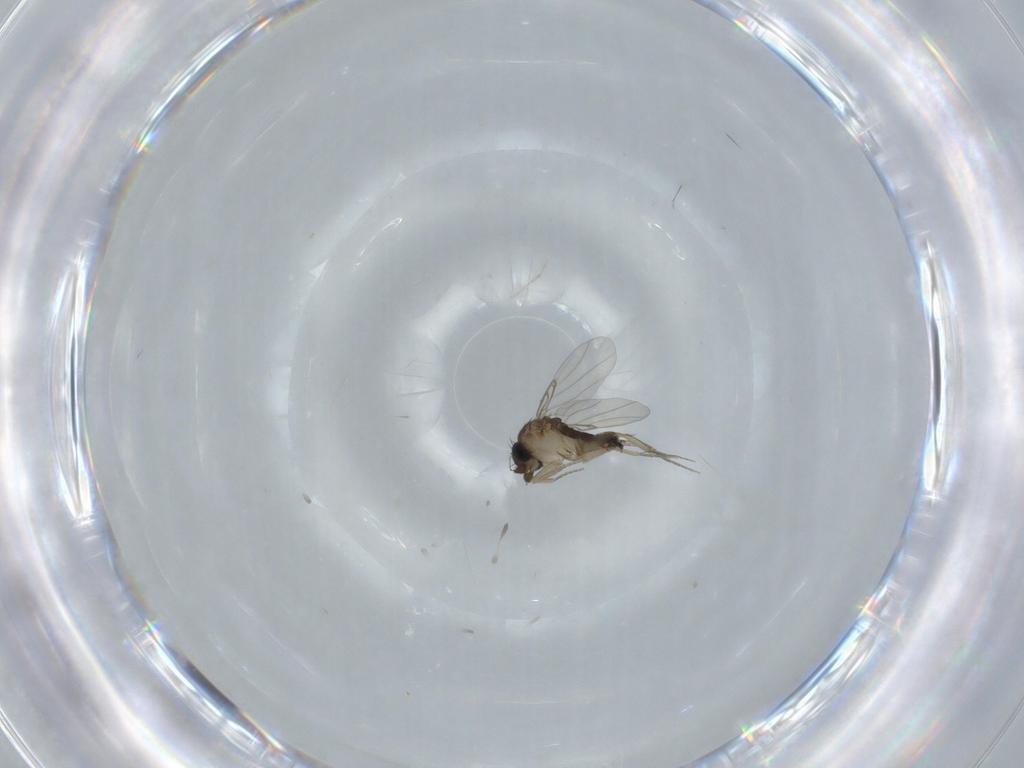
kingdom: Animalia
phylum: Arthropoda
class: Insecta
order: Diptera
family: Phoridae
